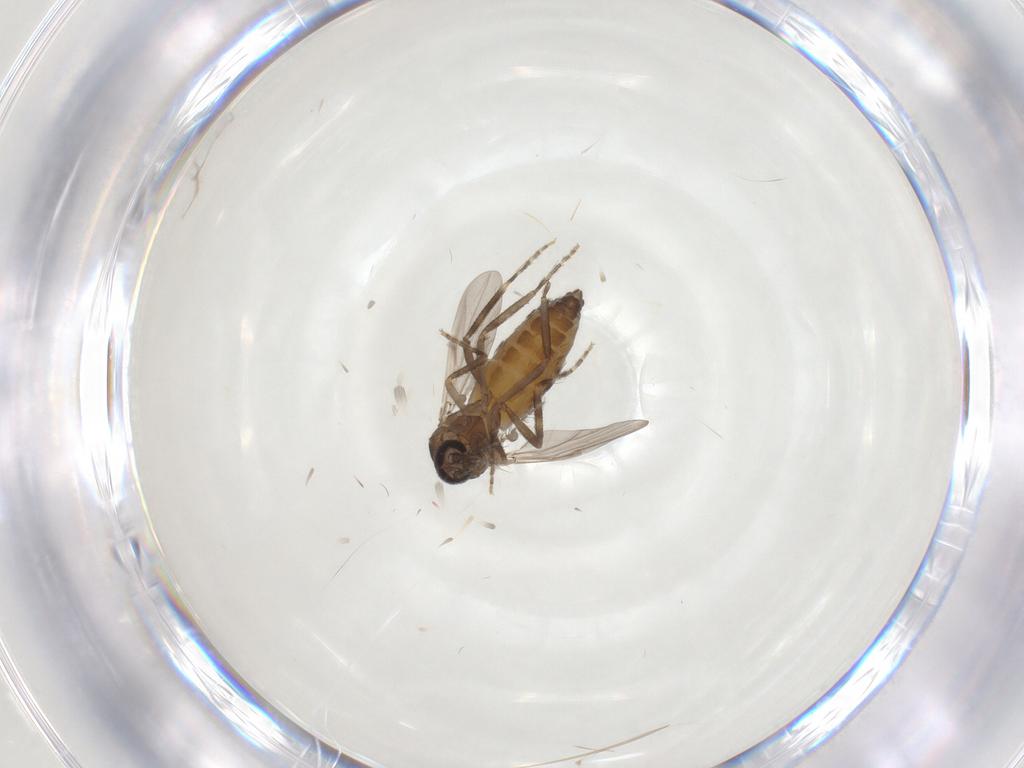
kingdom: Animalia
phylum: Arthropoda
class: Insecta
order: Diptera
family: Ceratopogonidae
